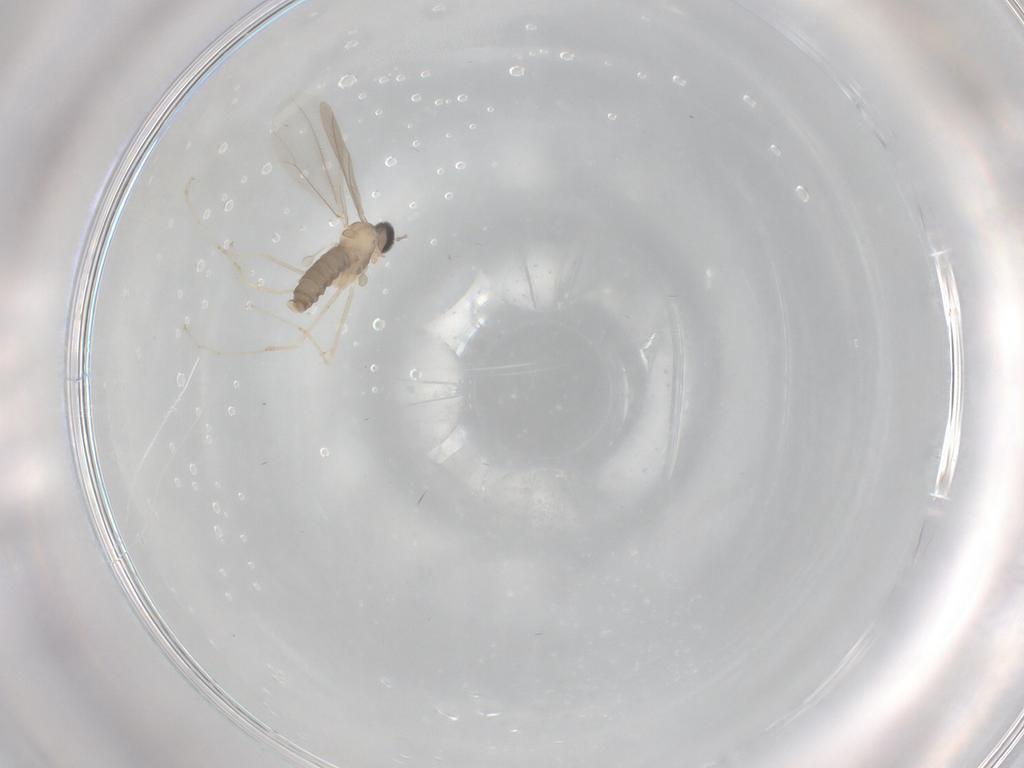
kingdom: Animalia
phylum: Arthropoda
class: Insecta
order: Diptera
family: Cecidomyiidae
